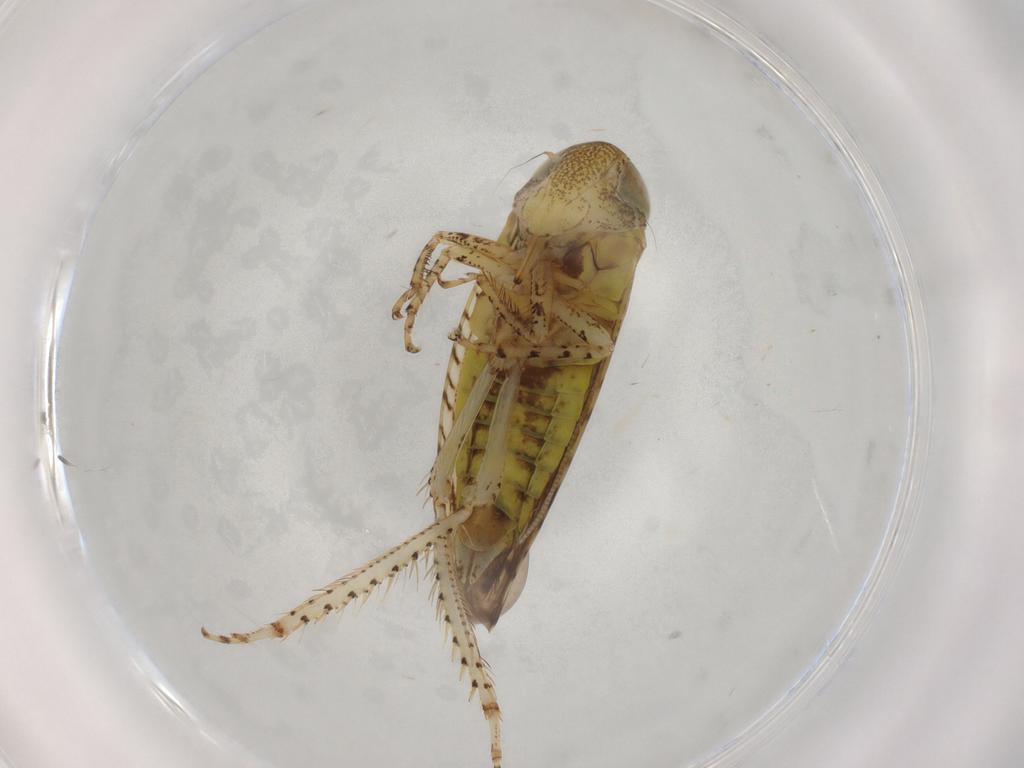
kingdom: Animalia
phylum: Arthropoda
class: Insecta
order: Hemiptera
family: Cicadellidae
